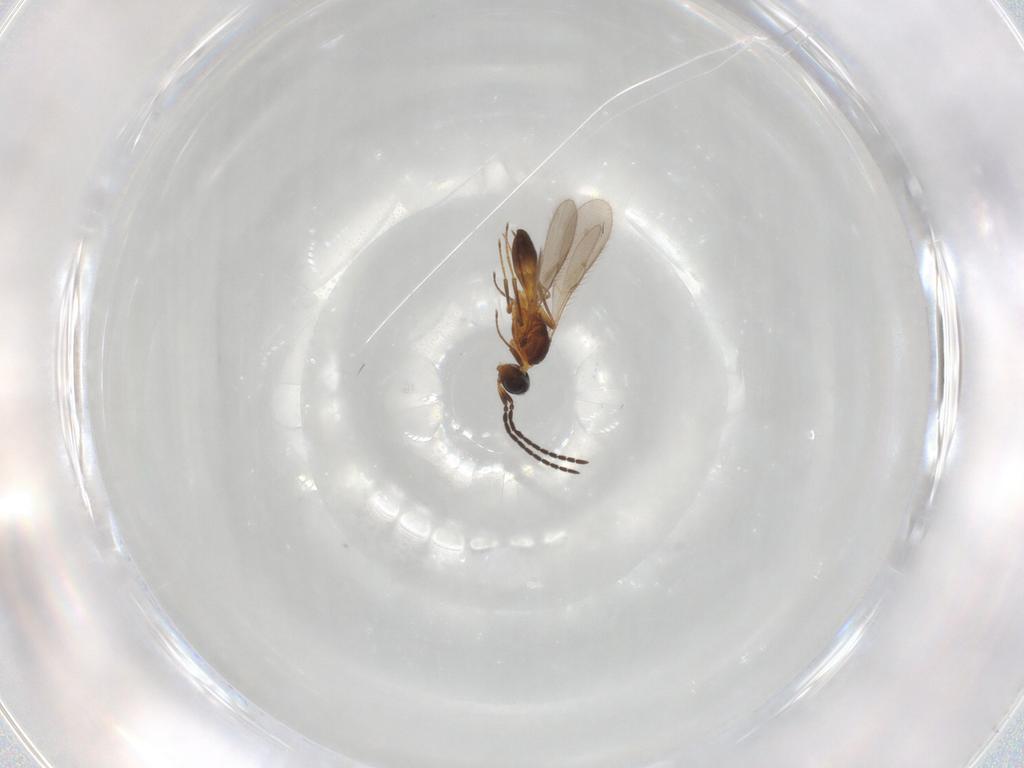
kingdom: Animalia
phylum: Arthropoda
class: Insecta
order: Hymenoptera
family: Scelionidae
